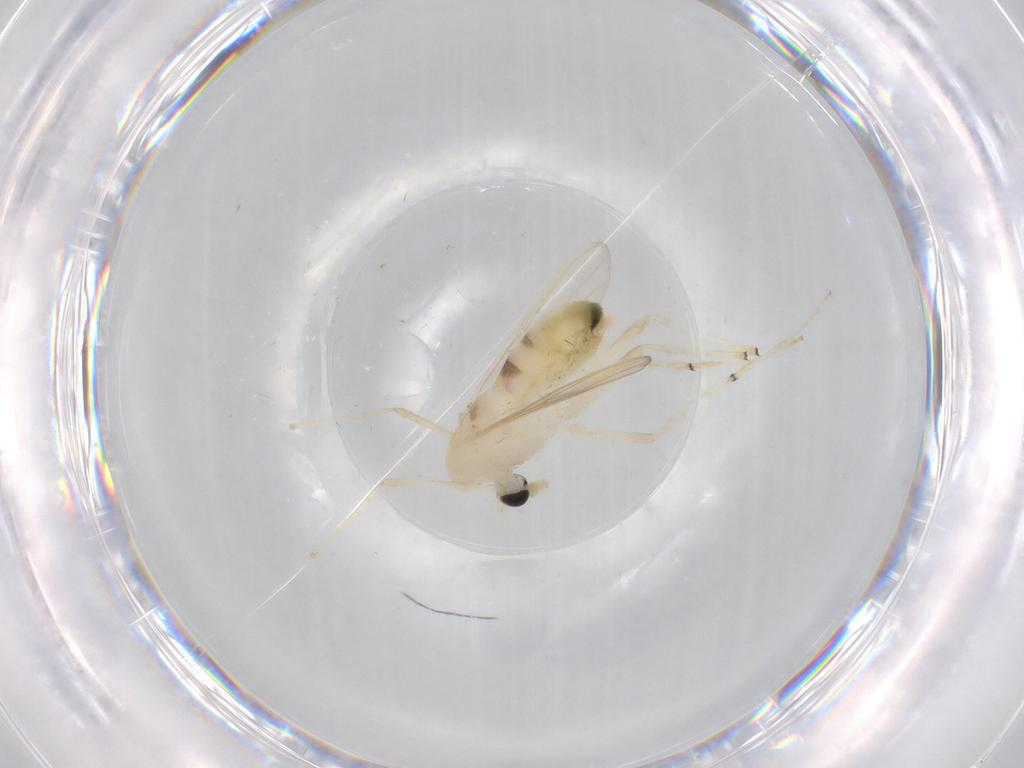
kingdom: Animalia
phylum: Arthropoda
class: Insecta
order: Diptera
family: Chironomidae
